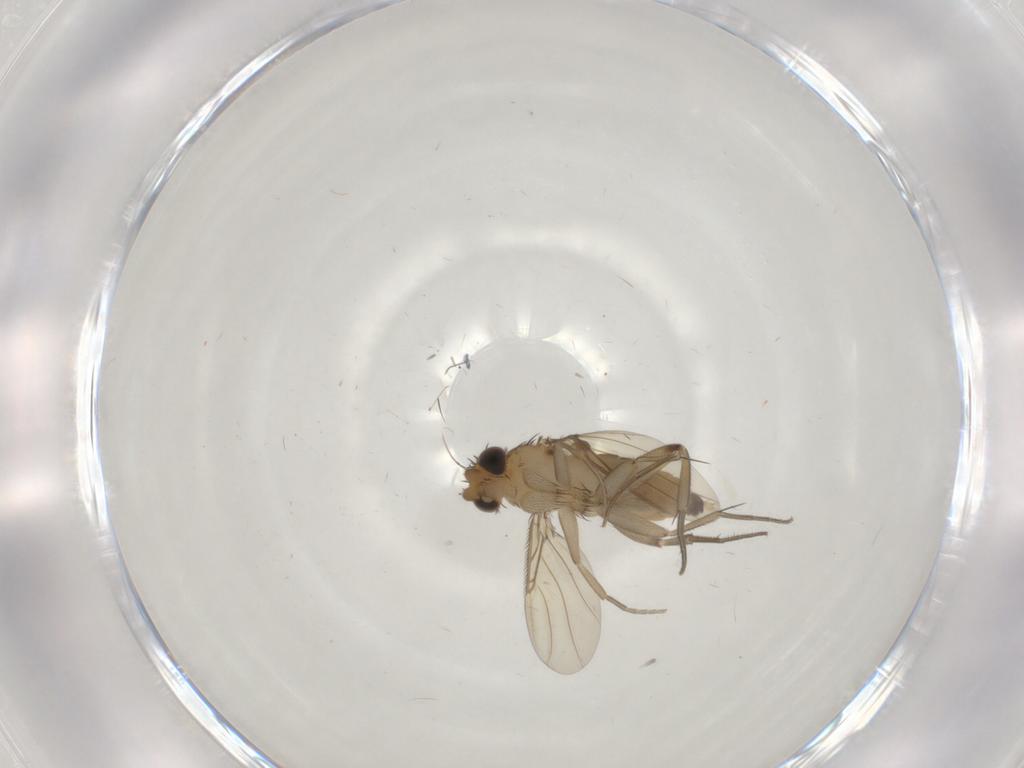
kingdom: Animalia
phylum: Arthropoda
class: Insecta
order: Diptera
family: Phoridae
